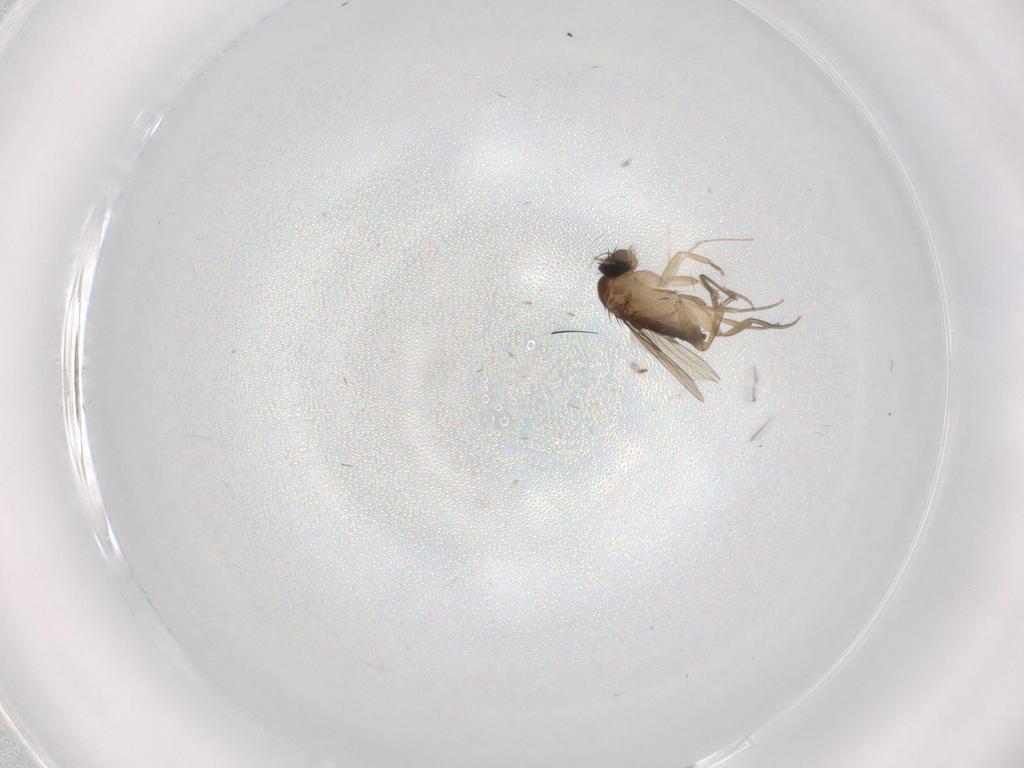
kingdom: Animalia
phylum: Arthropoda
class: Insecta
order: Diptera
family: Phoridae
